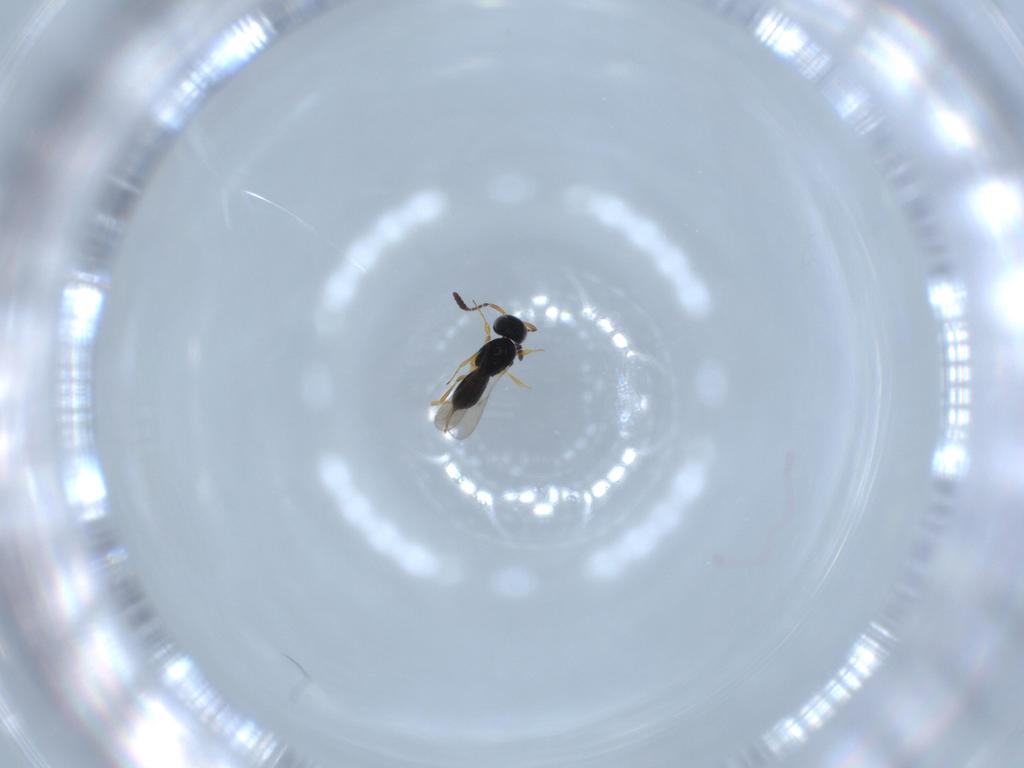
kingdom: Animalia
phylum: Arthropoda
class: Insecta
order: Hymenoptera
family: Scelionidae
